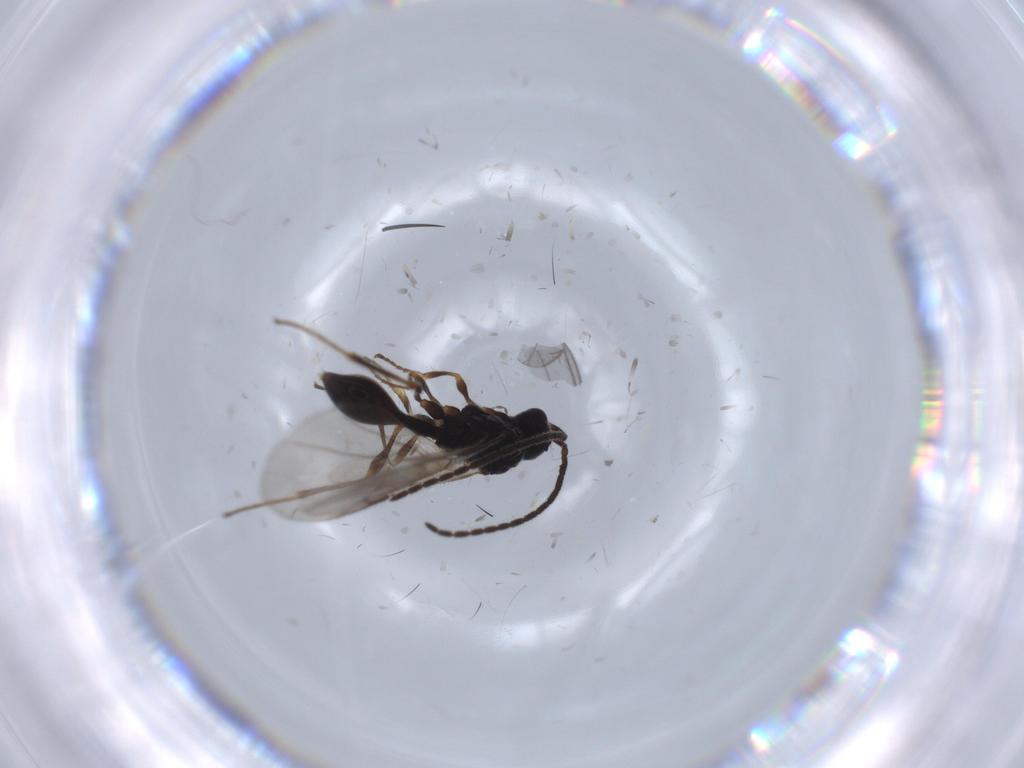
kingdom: Animalia
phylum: Arthropoda
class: Insecta
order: Hymenoptera
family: Diapriidae
